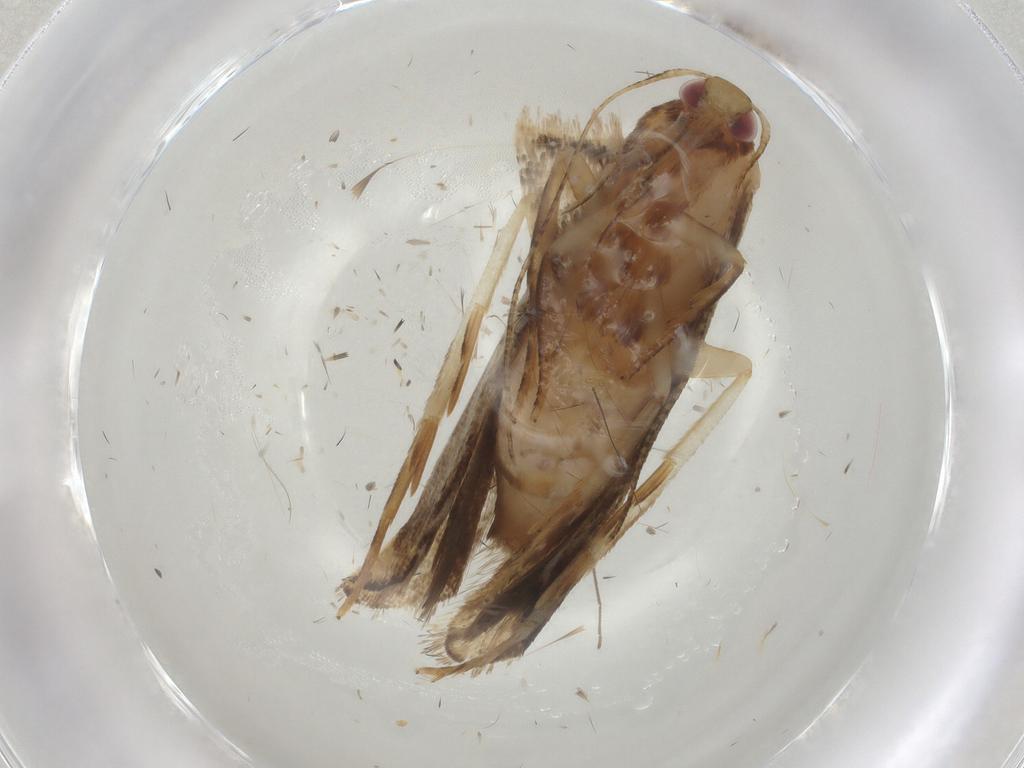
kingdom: Animalia
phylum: Arthropoda
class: Insecta
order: Lepidoptera
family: Gelechiidae
